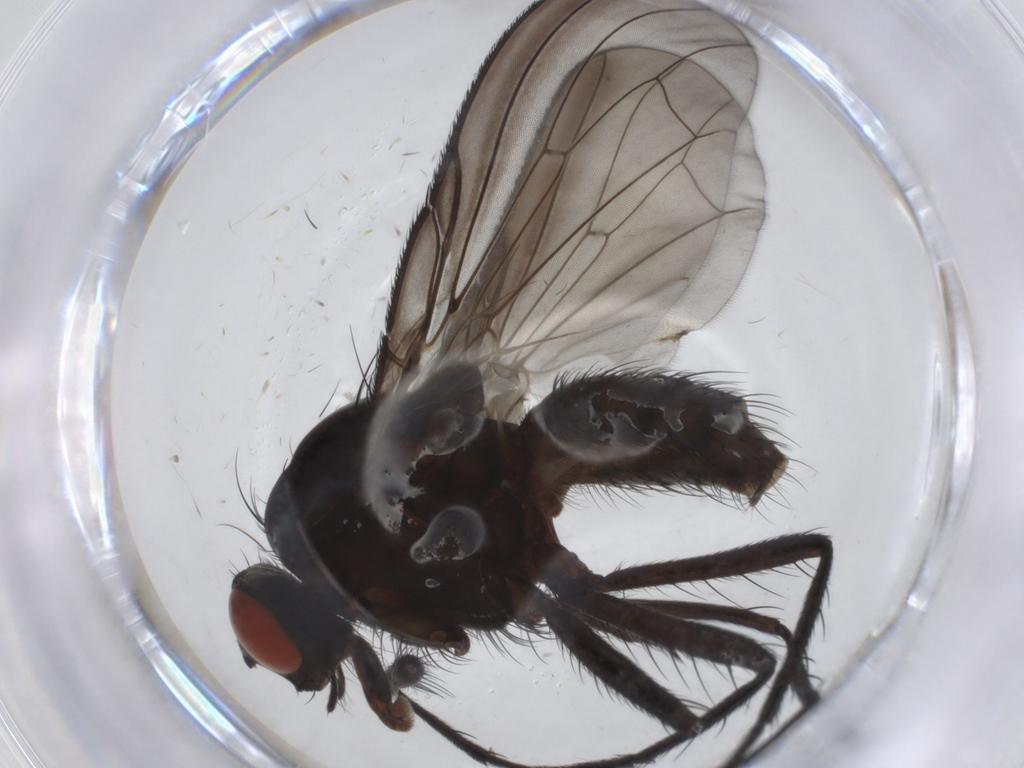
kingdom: Animalia
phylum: Arthropoda
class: Insecta
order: Diptera
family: Anthomyiidae
